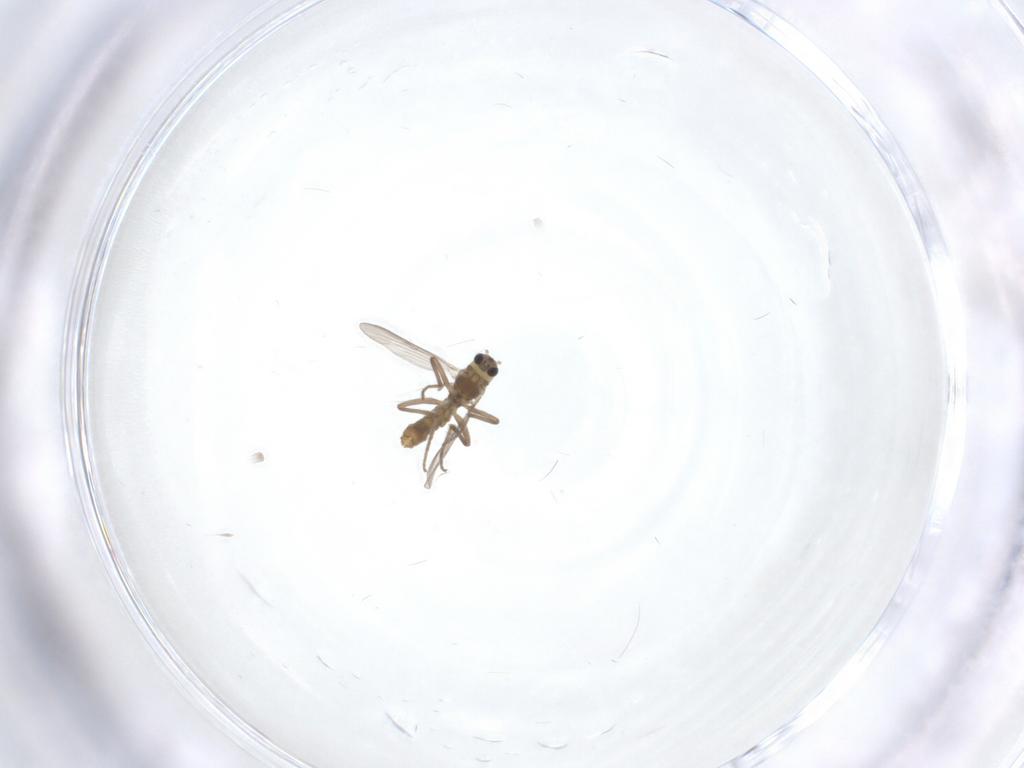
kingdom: Animalia
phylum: Arthropoda
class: Insecta
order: Diptera
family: Chironomidae
